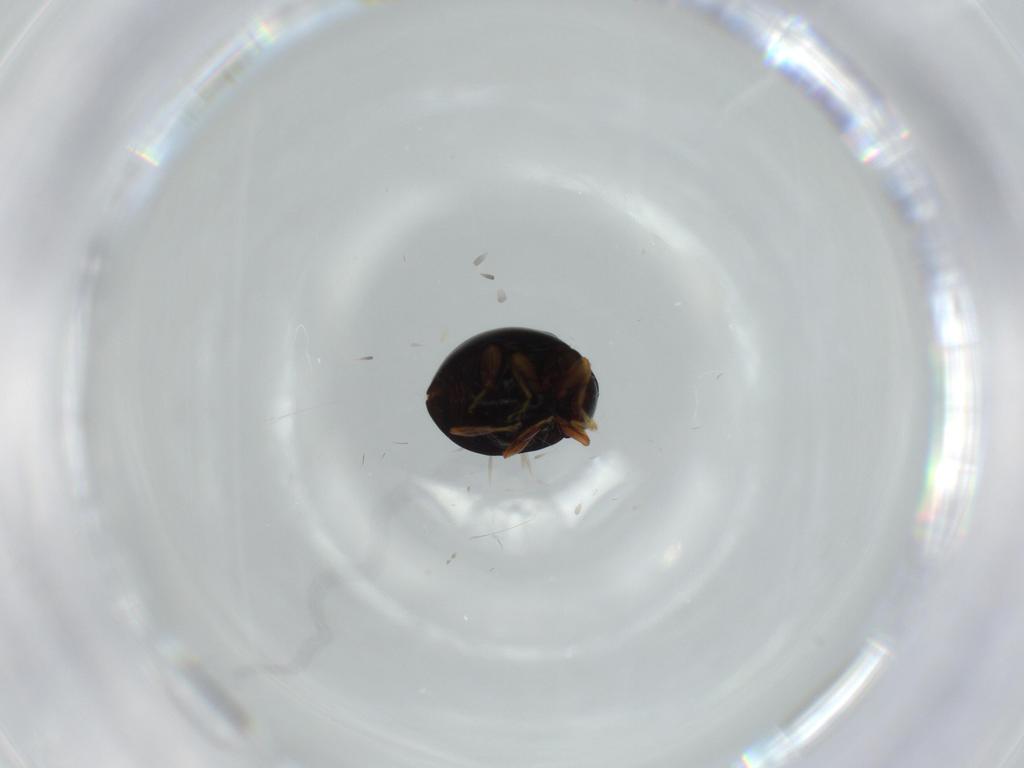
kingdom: Animalia
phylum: Arthropoda
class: Insecta
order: Coleoptera
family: Coccinellidae
